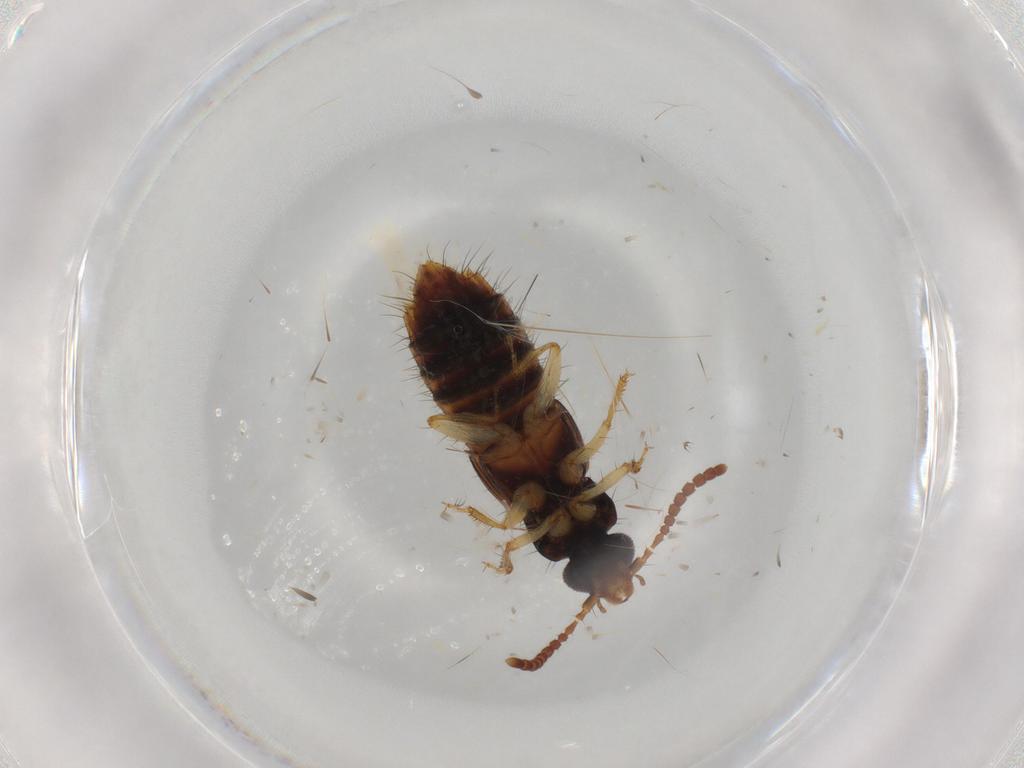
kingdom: Animalia
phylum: Arthropoda
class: Insecta
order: Coleoptera
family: Staphylinidae
